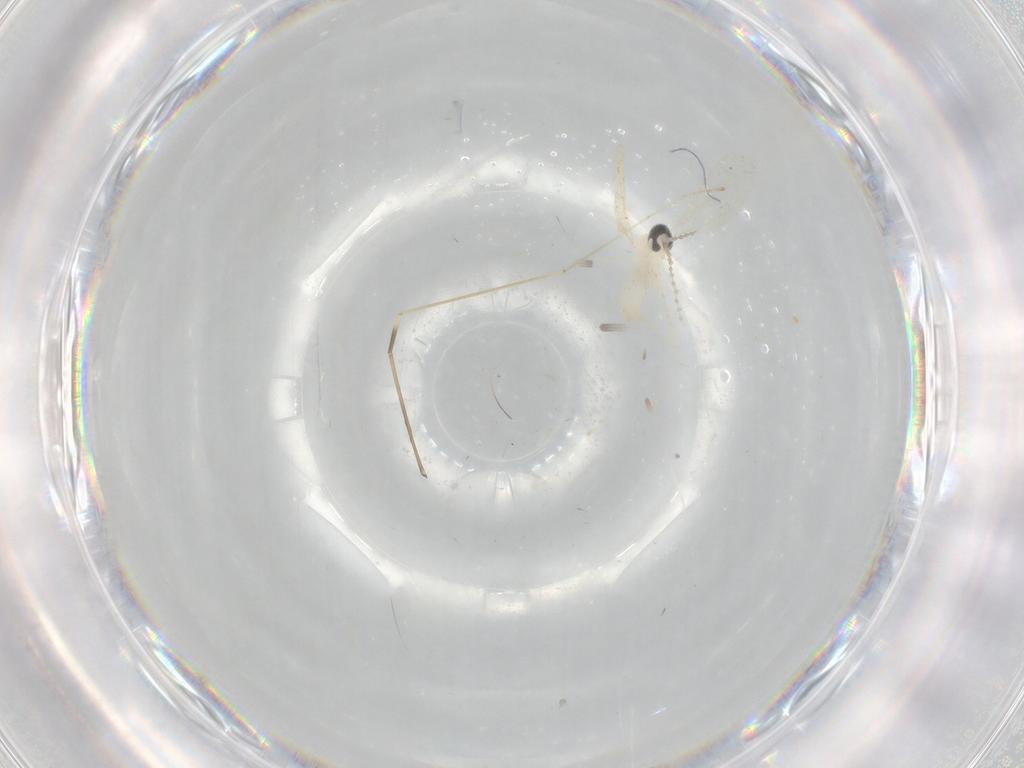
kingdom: Animalia
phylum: Arthropoda
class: Insecta
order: Diptera
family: Cecidomyiidae
